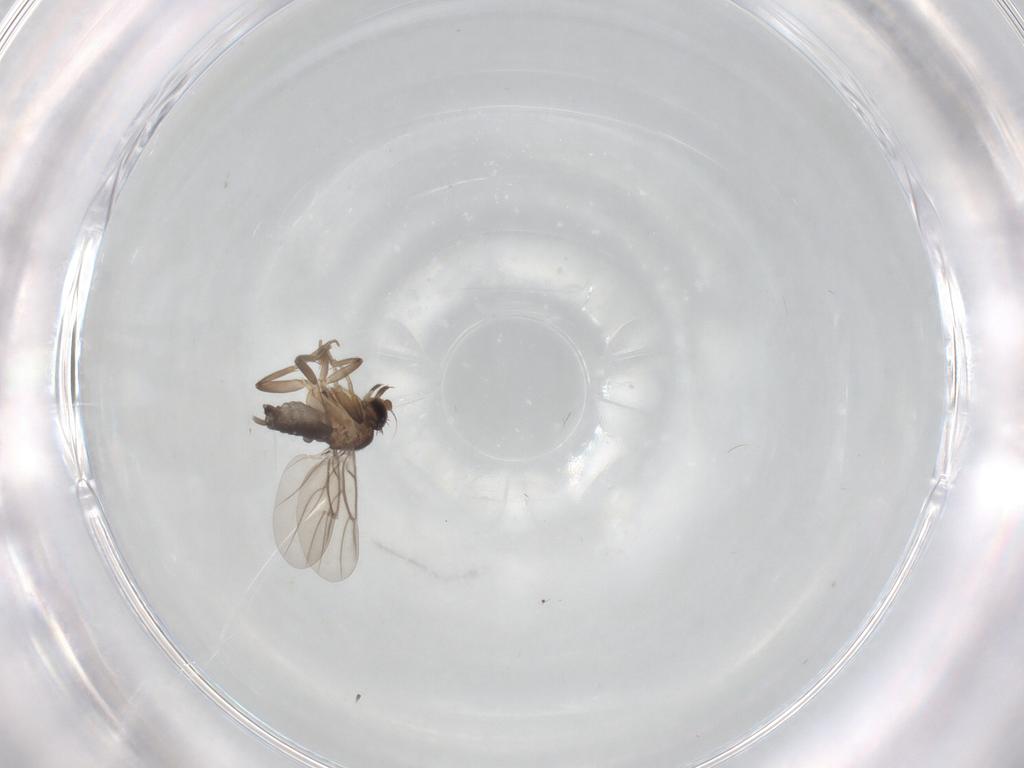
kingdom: Animalia
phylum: Arthropoda
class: Insecta
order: Diptera
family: Phoridae
